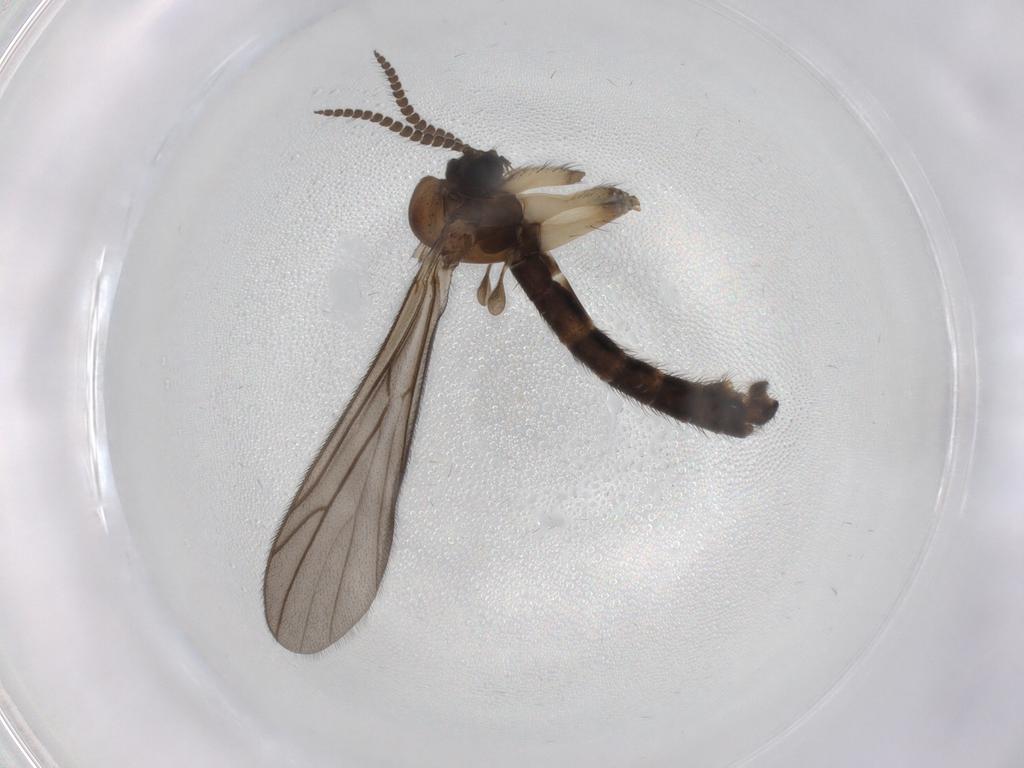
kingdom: Animalia
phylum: Arthropoda
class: Insecta
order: Diptera
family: Ditomyiidae
